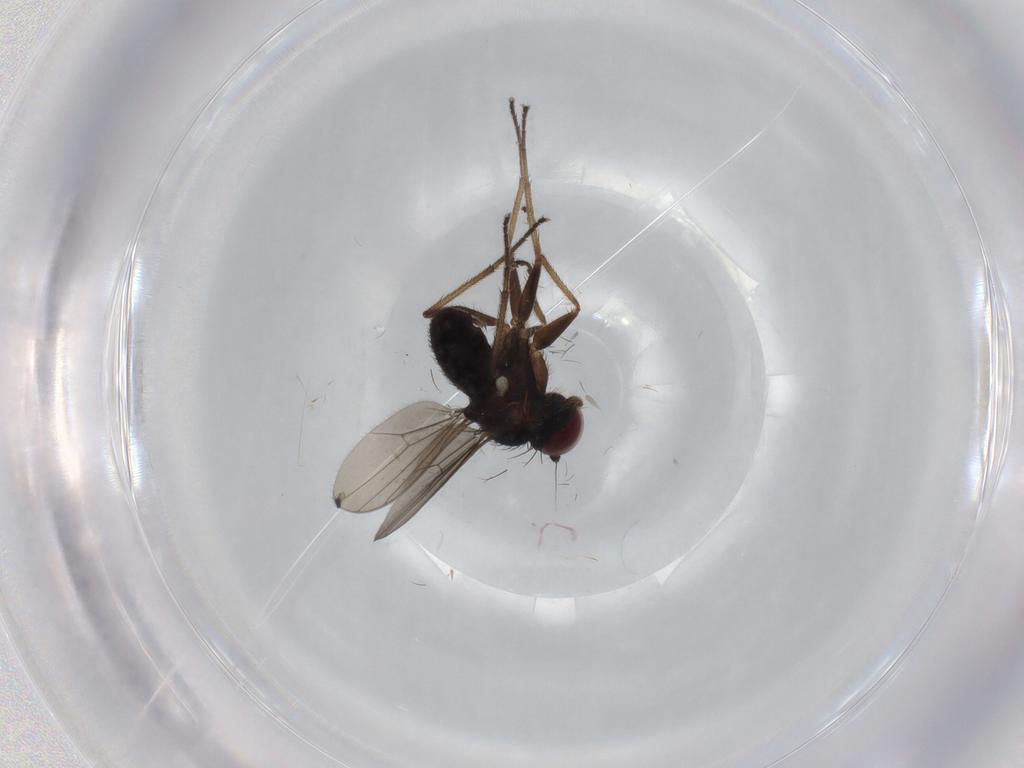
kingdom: Animalia
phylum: Arthropoda
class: Insecta
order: Diptera
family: Dolichopodidae
